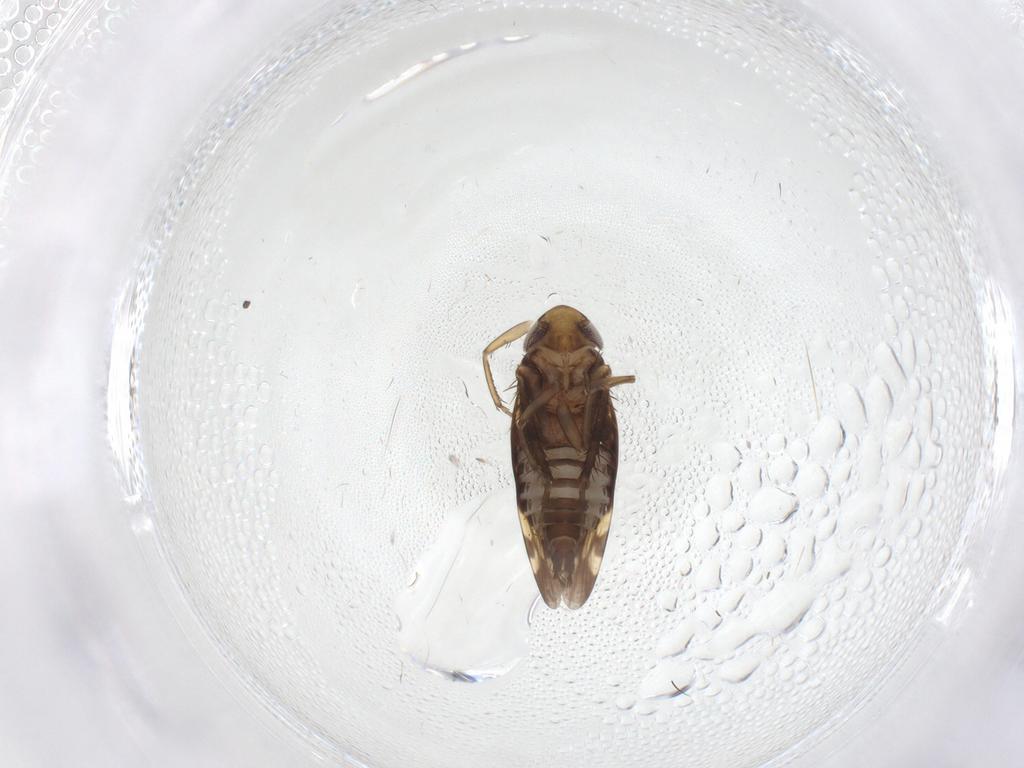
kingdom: Animalia
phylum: Arthropoda
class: Insecta
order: Hemiptera
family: Cicadellidae
